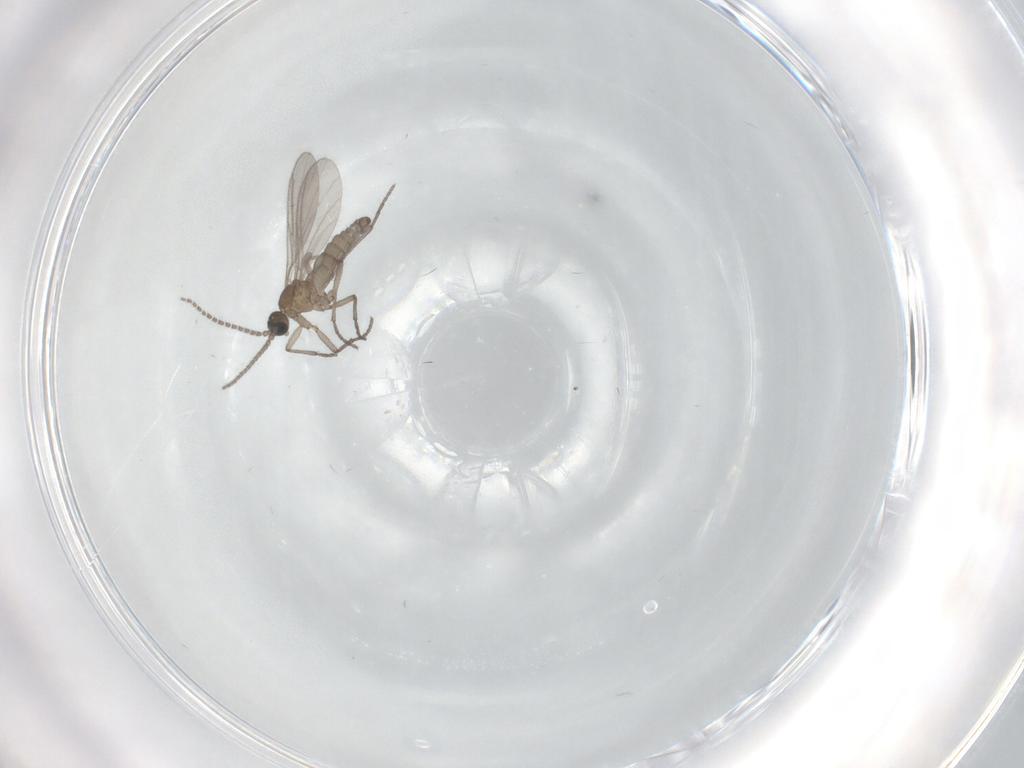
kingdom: Animalia
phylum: Arthropoda
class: Insecta
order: Diptera
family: Sciaridae
